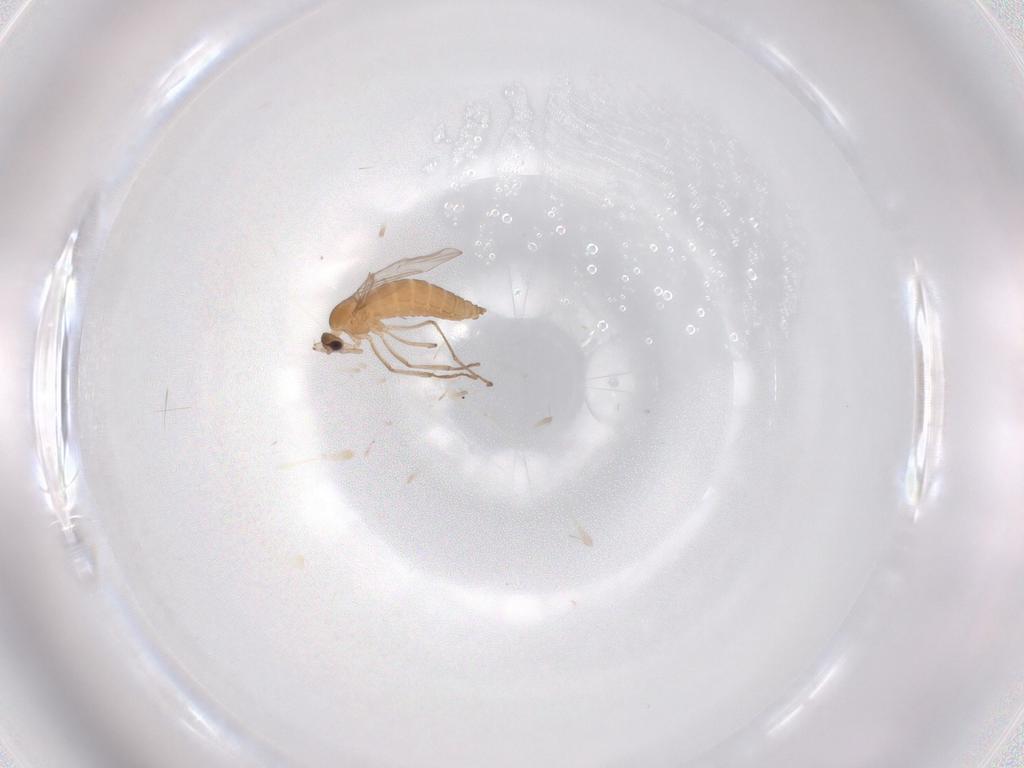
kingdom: Animalia
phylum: Arthropoda
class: Insecta
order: Diptera
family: Cecidomyiidae
